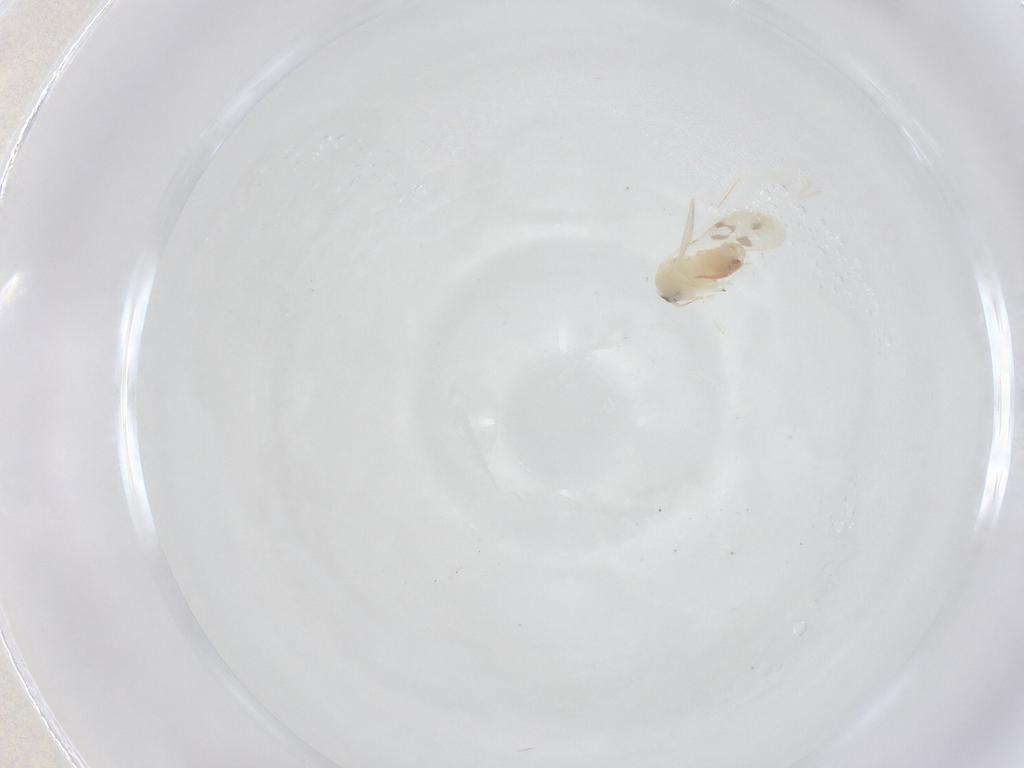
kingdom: Animalia
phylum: Arthropoda
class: Insecta
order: Hemiptera
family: Aleyrodidae
